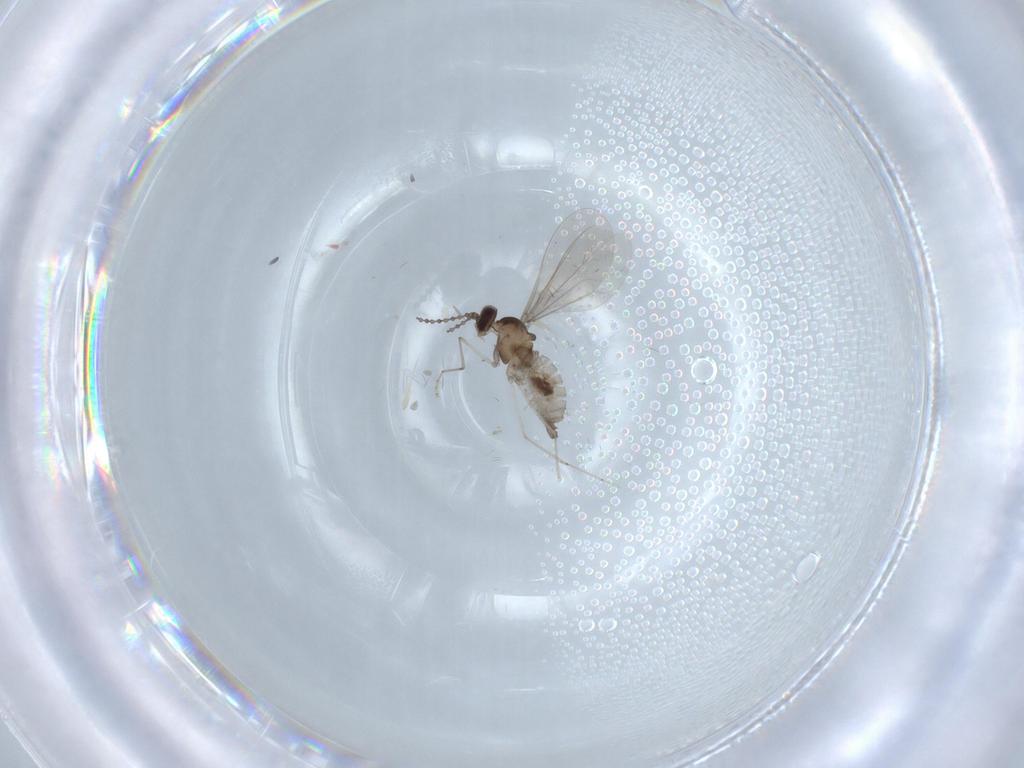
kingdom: Animalia
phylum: Arthropoda
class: Insecta
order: Diptera
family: Cecidomyiidae
